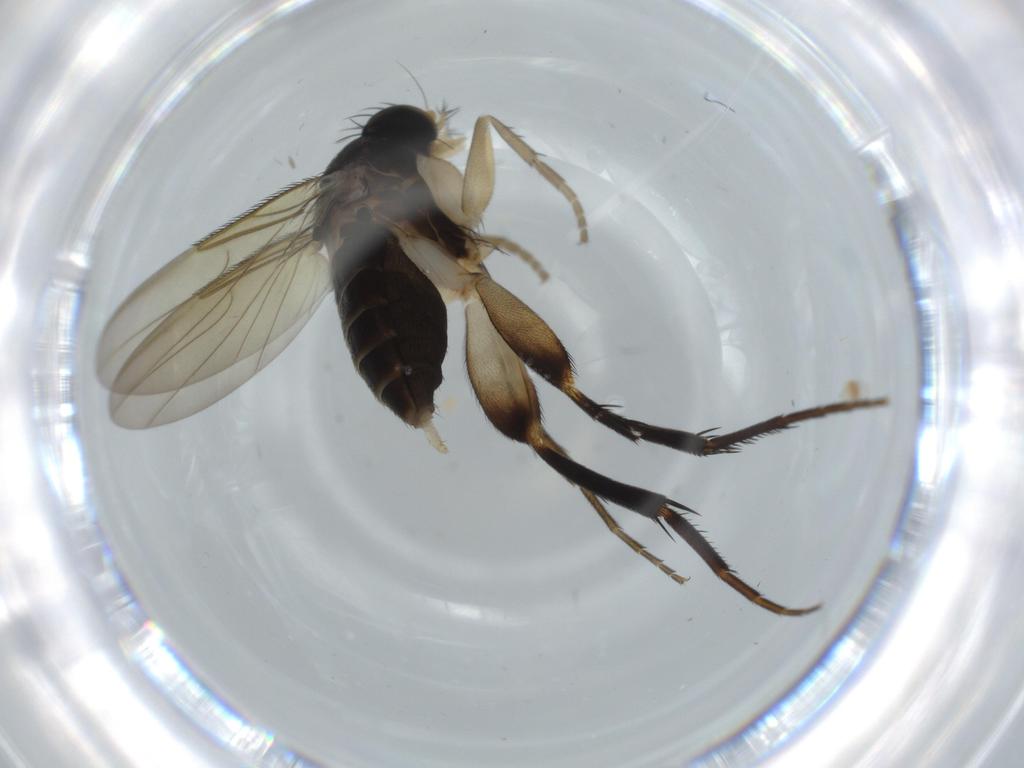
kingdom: Animalia
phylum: Arthropoda
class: Insecta
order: Diptera
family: Phoridae
